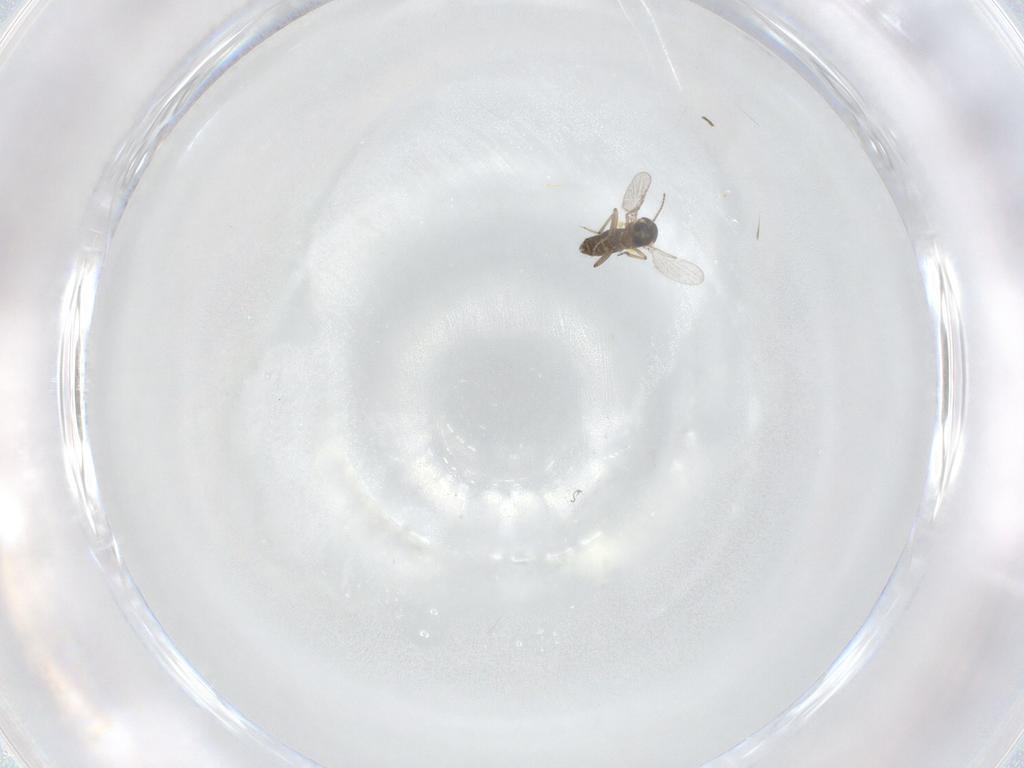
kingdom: Animalia
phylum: Arthropoda
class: Insecta
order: Diptera
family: Ceratopogonidae
